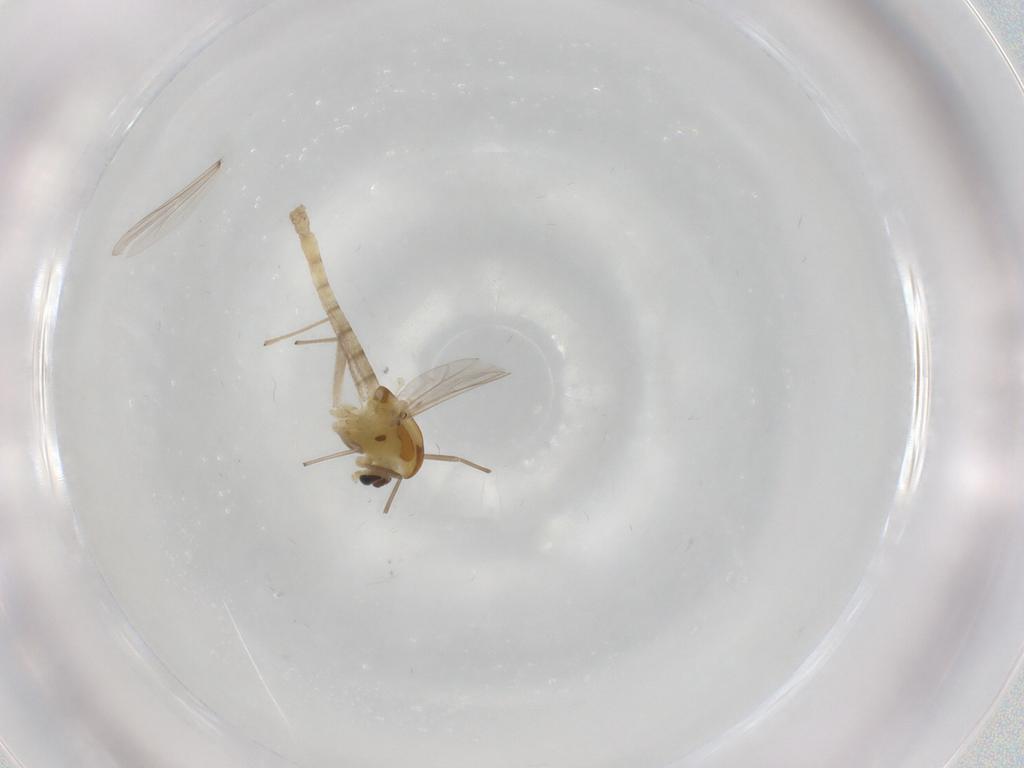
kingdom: Animalia
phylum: Arthropoda
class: Insecta
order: Diptera
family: Chironomidae
